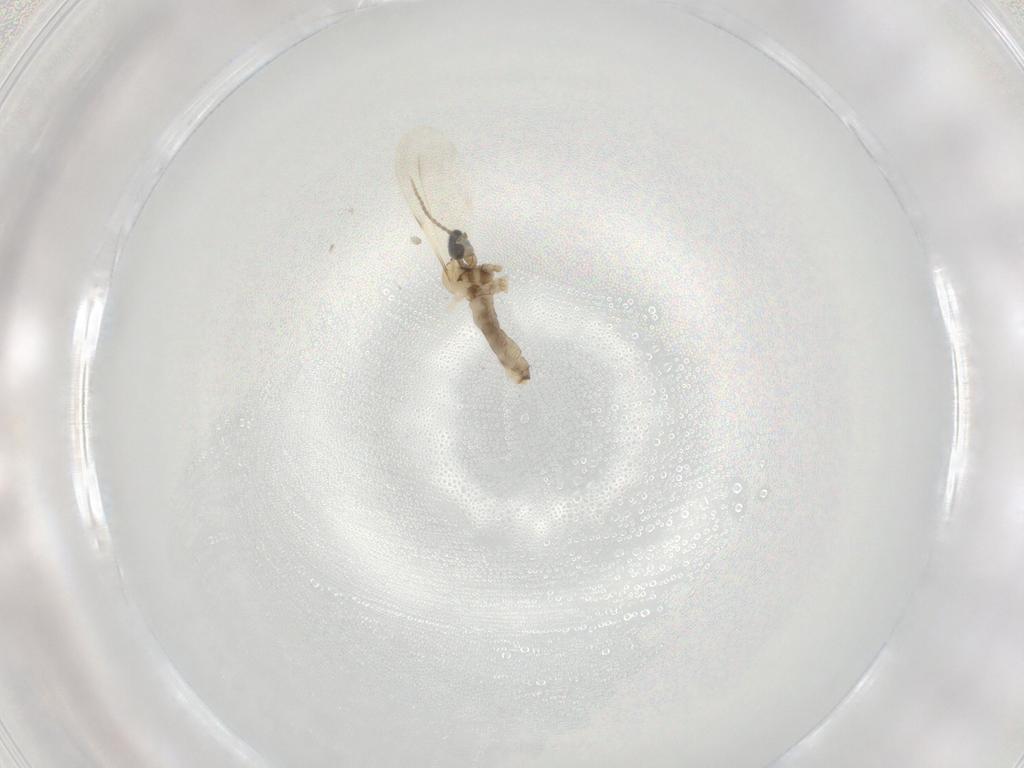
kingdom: Animalia
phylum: Arthropoda
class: Insecta
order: Diptera
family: Cecidomyiidae
